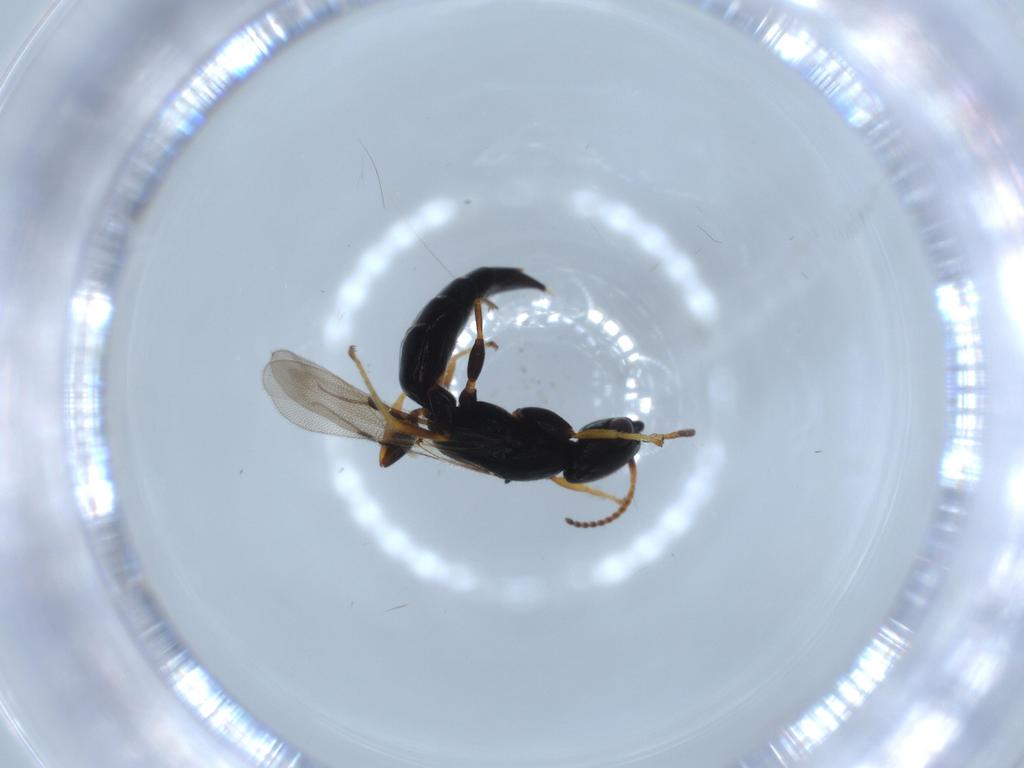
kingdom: Animalia
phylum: Arthropoda
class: Insecta
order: Hymenoptera
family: Bethylidae
